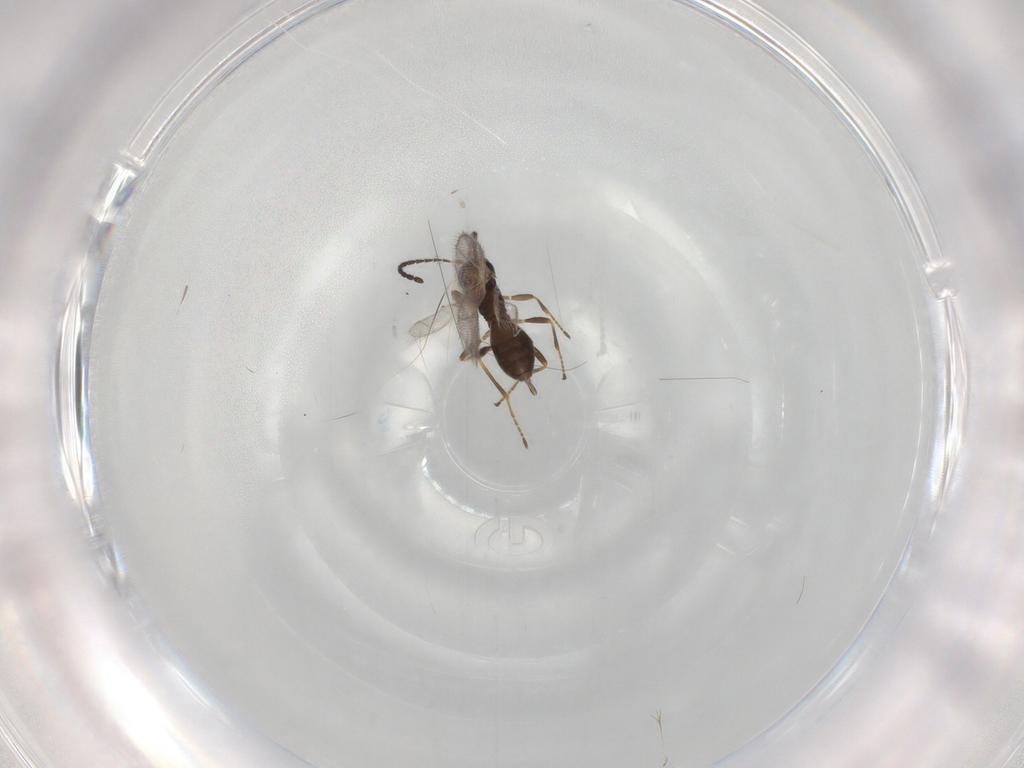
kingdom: Animalia
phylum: Arthropoda
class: Insecta
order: Hymenoptera
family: Braconidae
